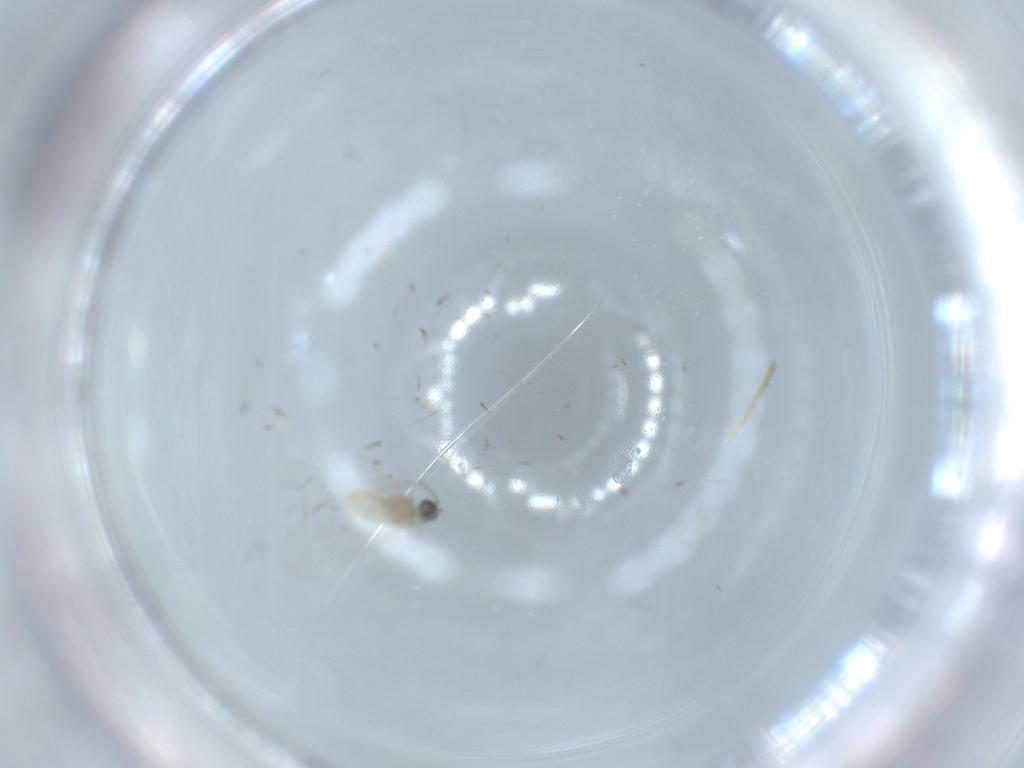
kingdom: Animalia
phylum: Arthropoda
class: Insecta
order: Diptera
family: Cecidomyiidae
